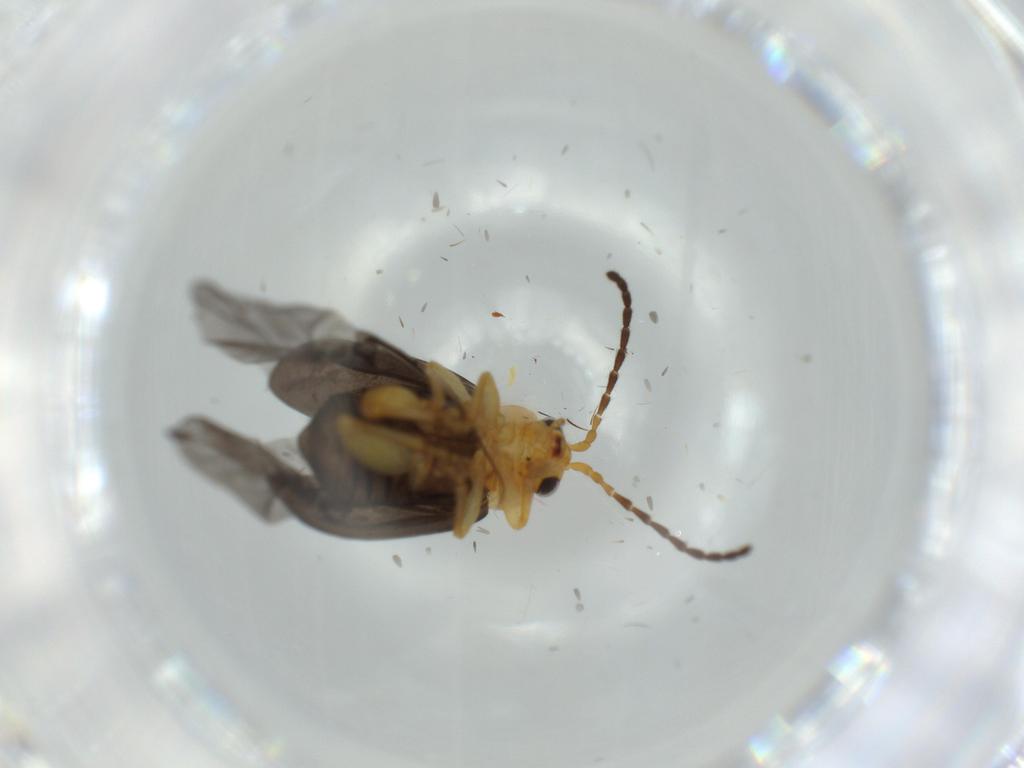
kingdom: Animalia
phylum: Arthropoda
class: Insecta
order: Coleoptera
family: Chrysomelidae
